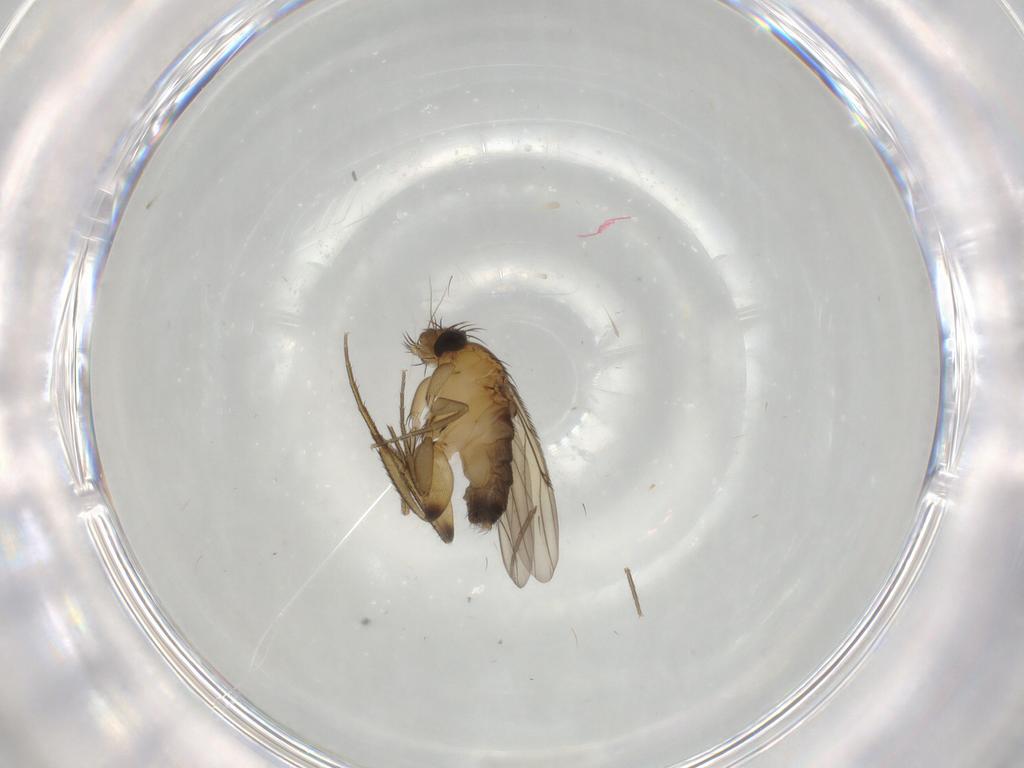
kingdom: Animalia
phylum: Arthropoda
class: Insecta
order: Diptera
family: Phoridae
